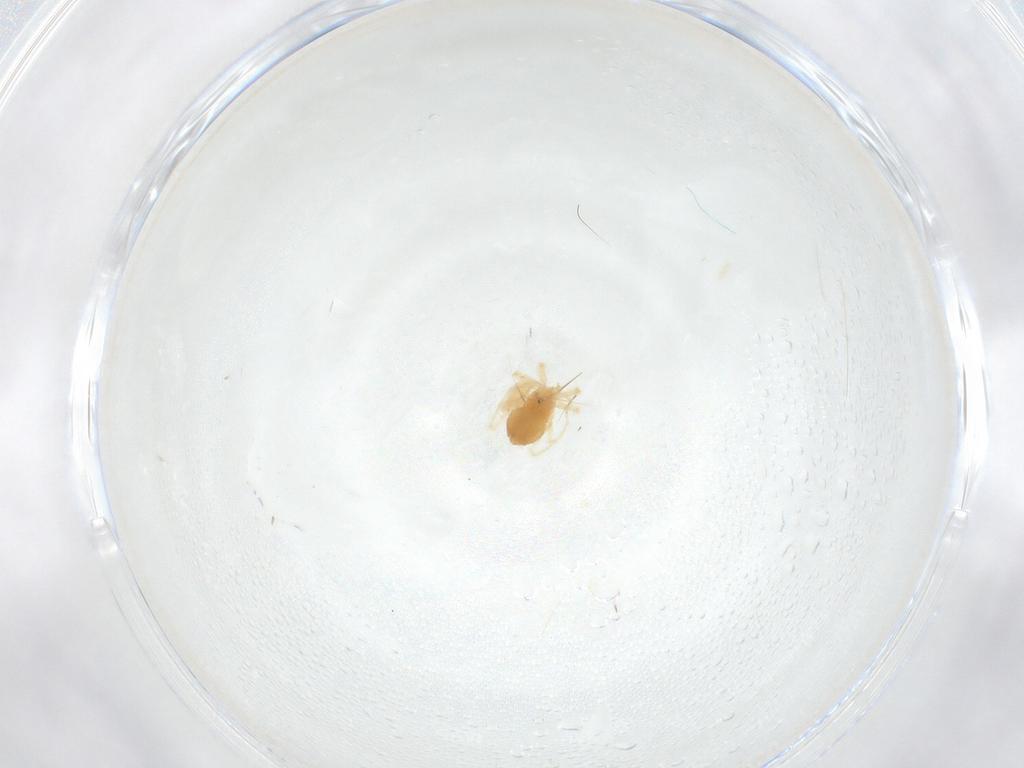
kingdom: Animalia
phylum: Arthropoda
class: Arachnida
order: Trombidiformes
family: Anystidae
